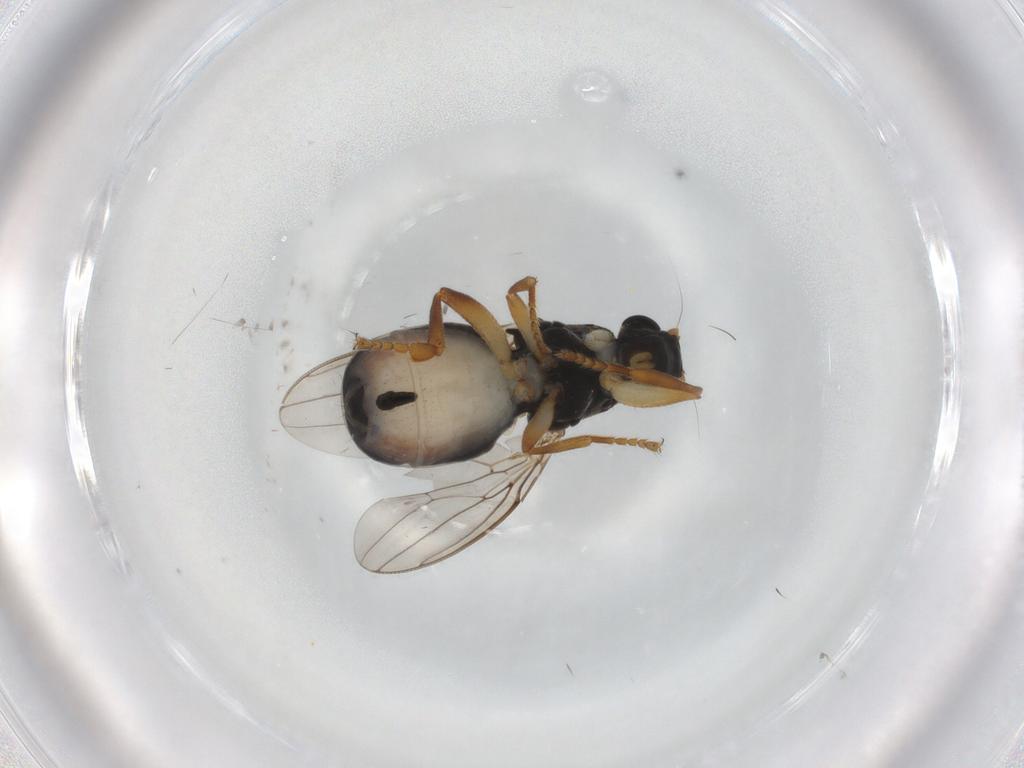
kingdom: Animalia
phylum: Arthropoda
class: Insecta
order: Diptera
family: Sphaeroceridae
